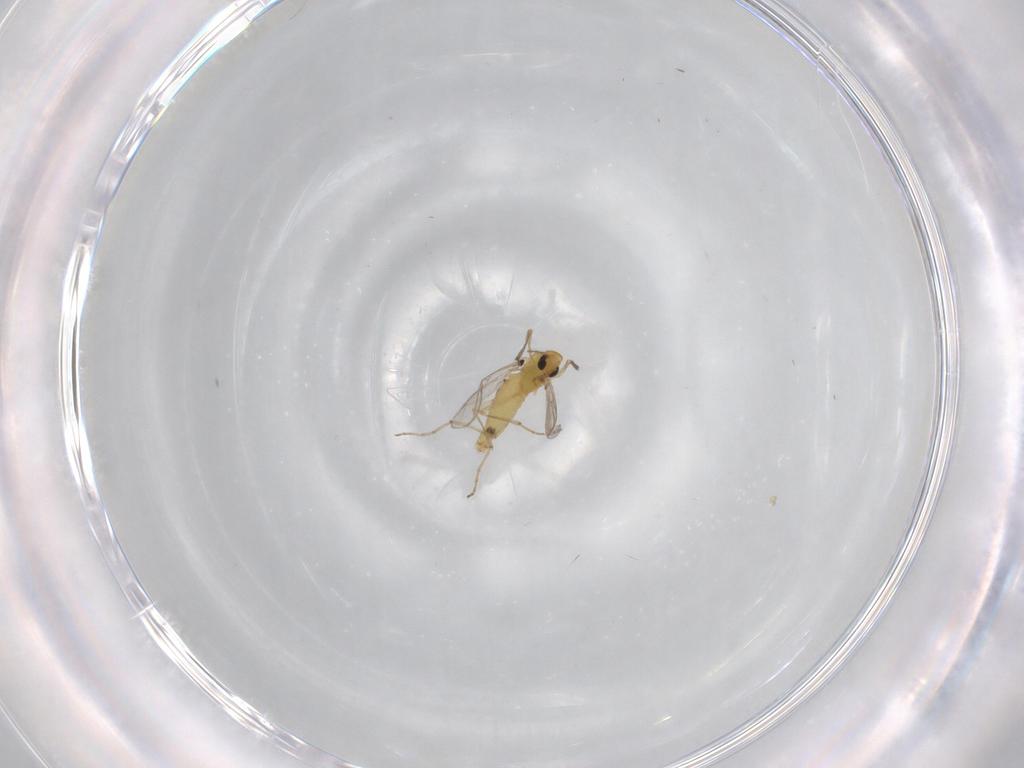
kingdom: Animalia
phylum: Arthropoda
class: Insecta
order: Diptera
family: Chironomidae
